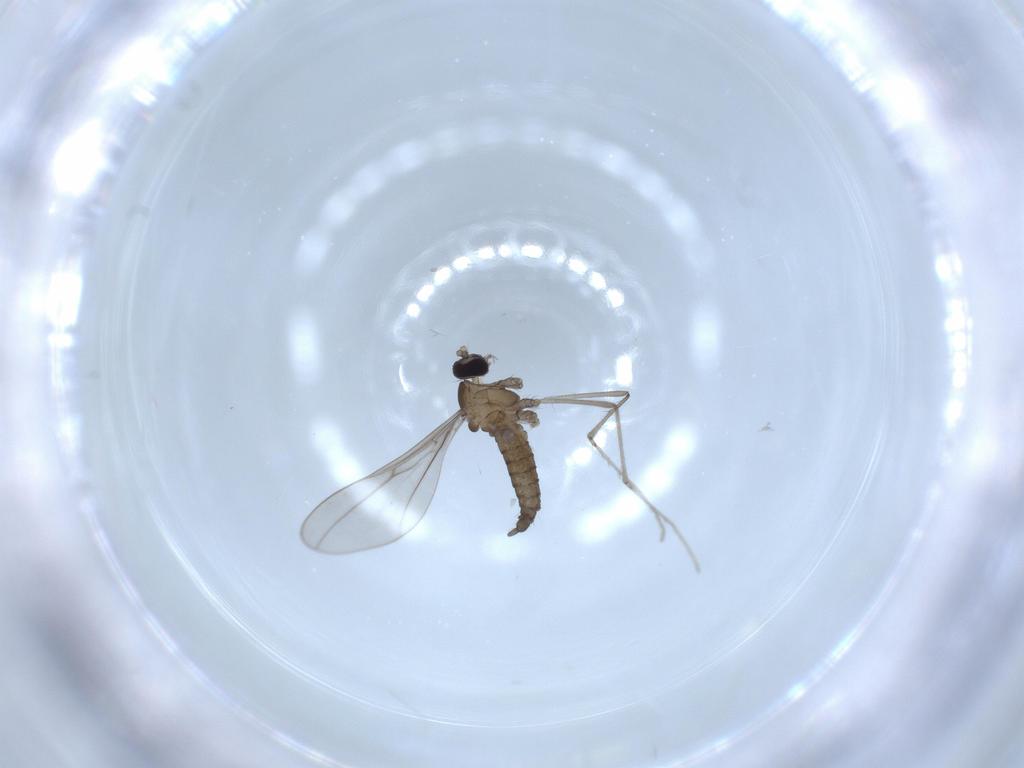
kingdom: Animalia
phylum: Arthropoda
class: Insecta
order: Diptera
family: Cecidomyiidae
